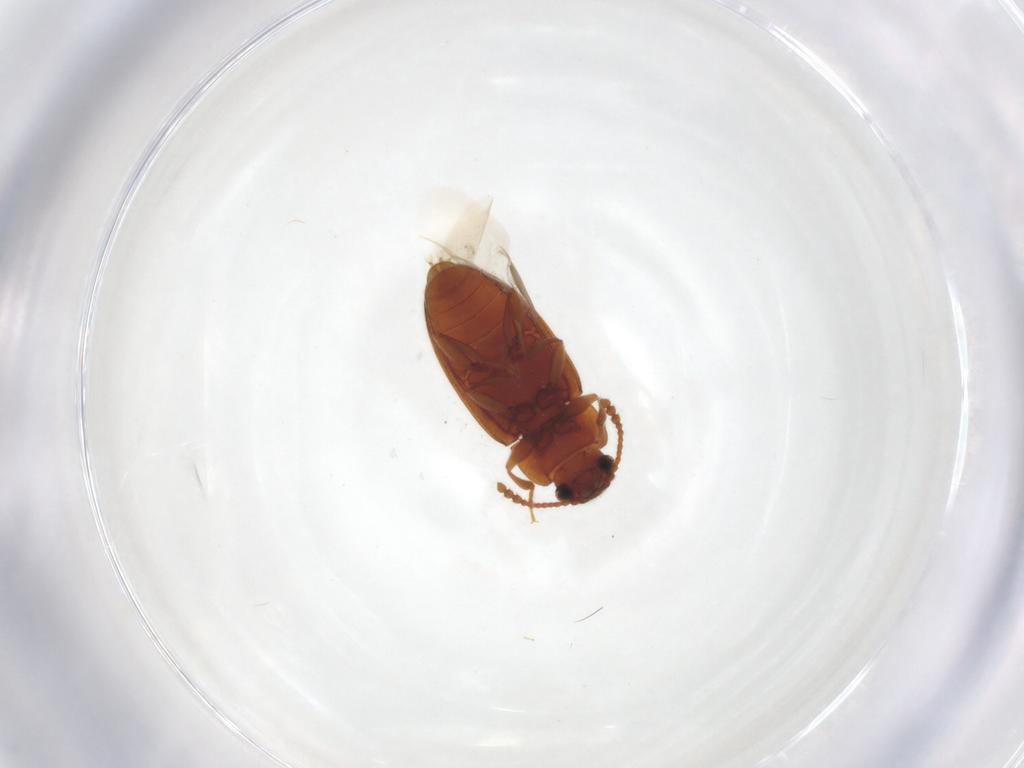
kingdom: Animalia
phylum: Arthropoda
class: Insecta
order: Coleoptera
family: Erotylidae
